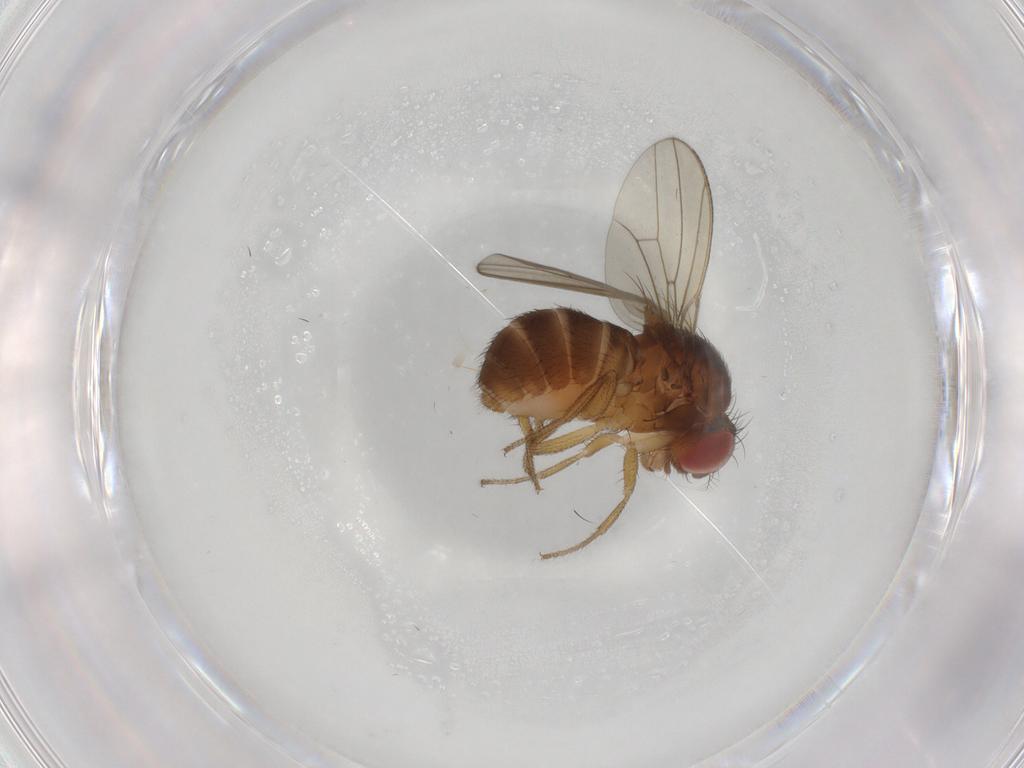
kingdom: Animalia
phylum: Arthropoda
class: Insecta
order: Diptera
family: Drosophilidae
